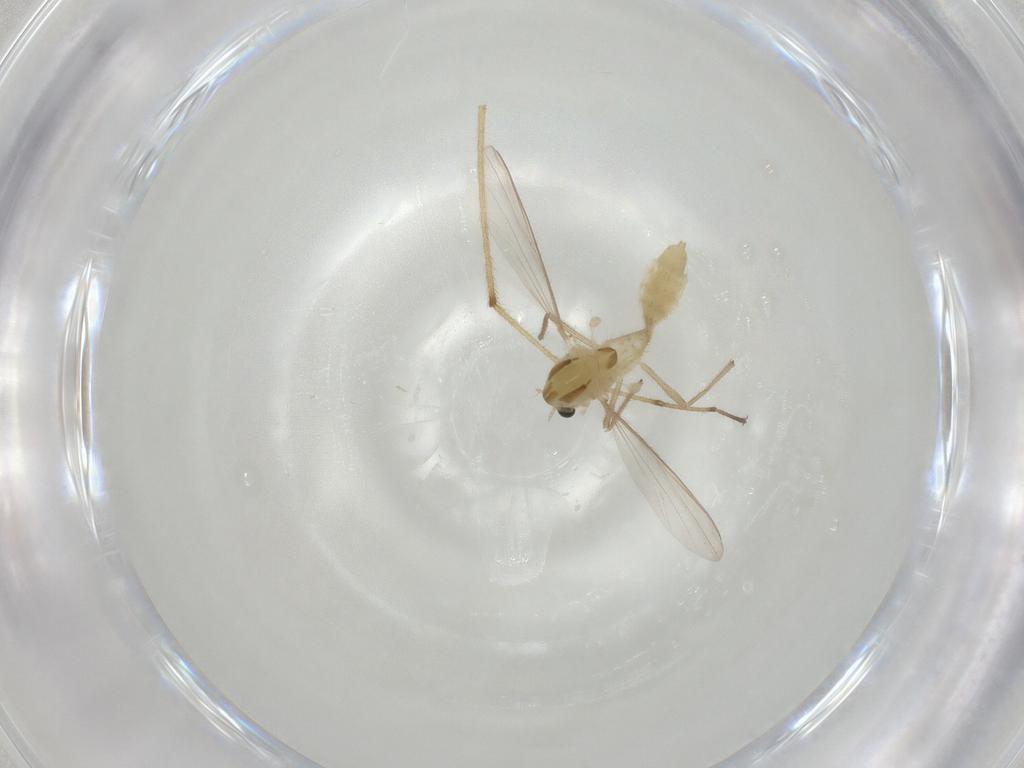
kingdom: Animalia
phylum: Arthropoda
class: Insecta
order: Diptera
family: Chironomidae
